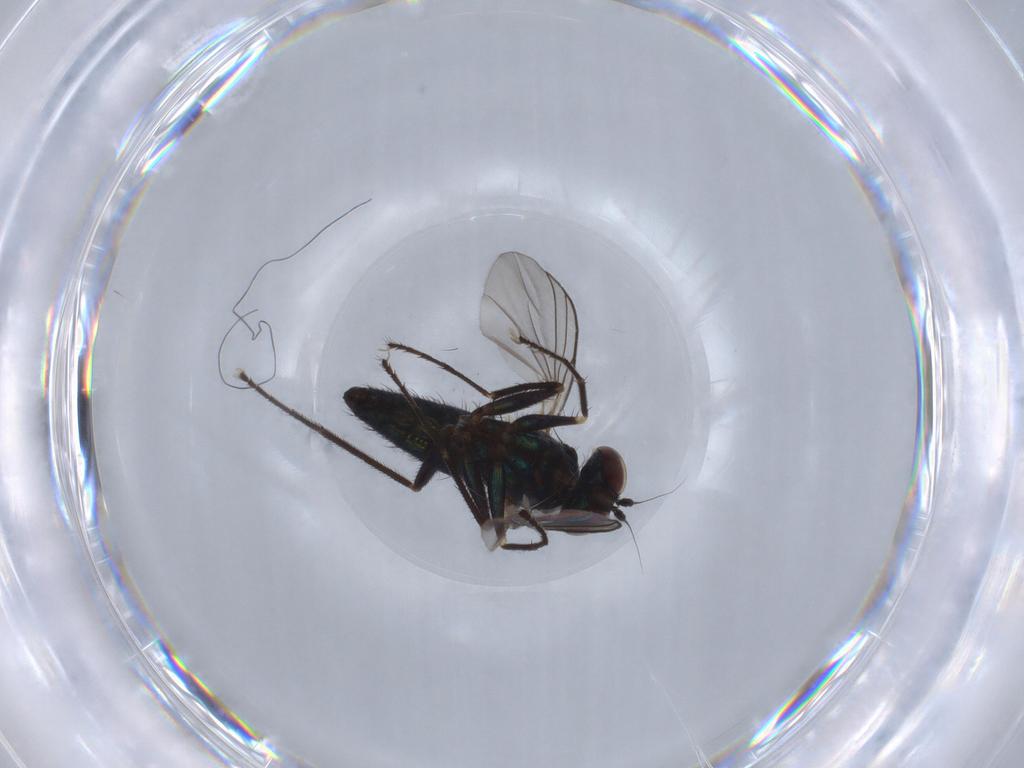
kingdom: Animalia
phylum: Arthropoda
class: Insecta
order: Diptera
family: Dolichopodidae
